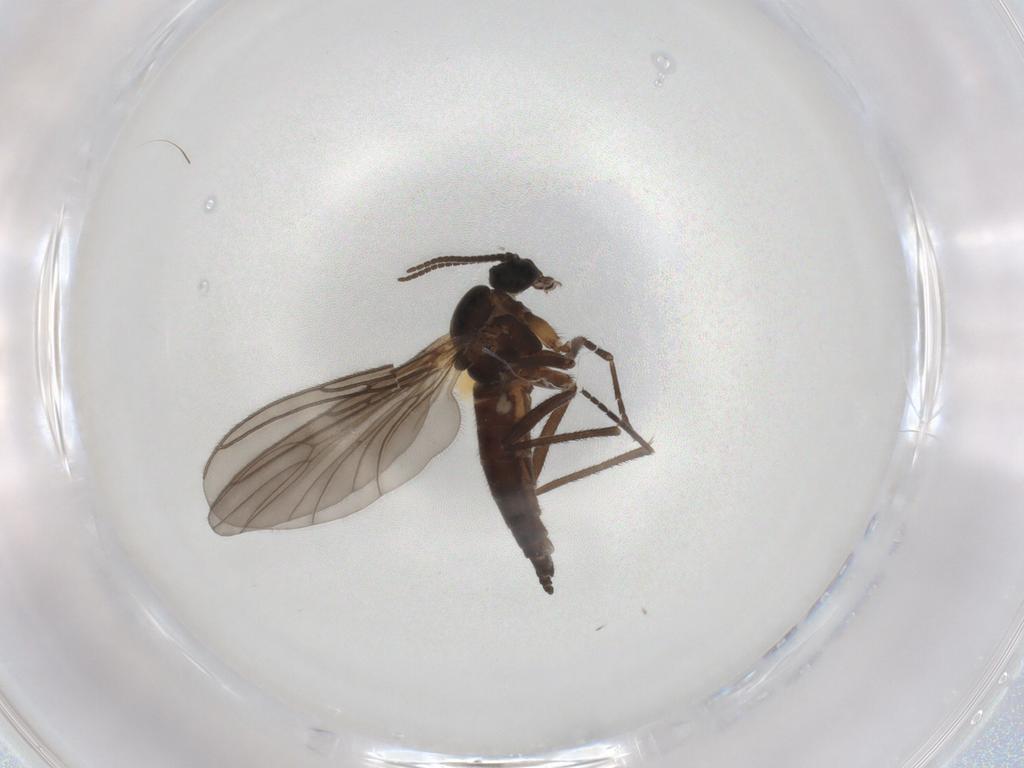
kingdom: Animalia
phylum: Arthropoda
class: Insecta
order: Diptera
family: Sciaridae
